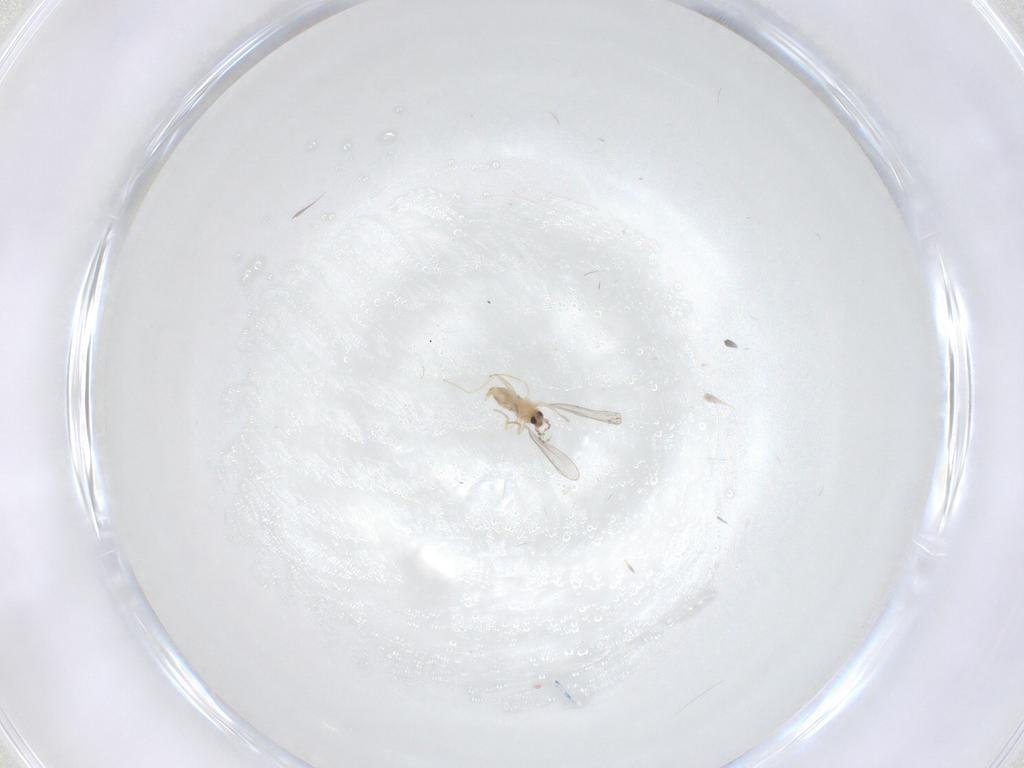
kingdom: Animalia
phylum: Arthropoda
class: Insecta
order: Diptera
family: Cecidomyiidae
